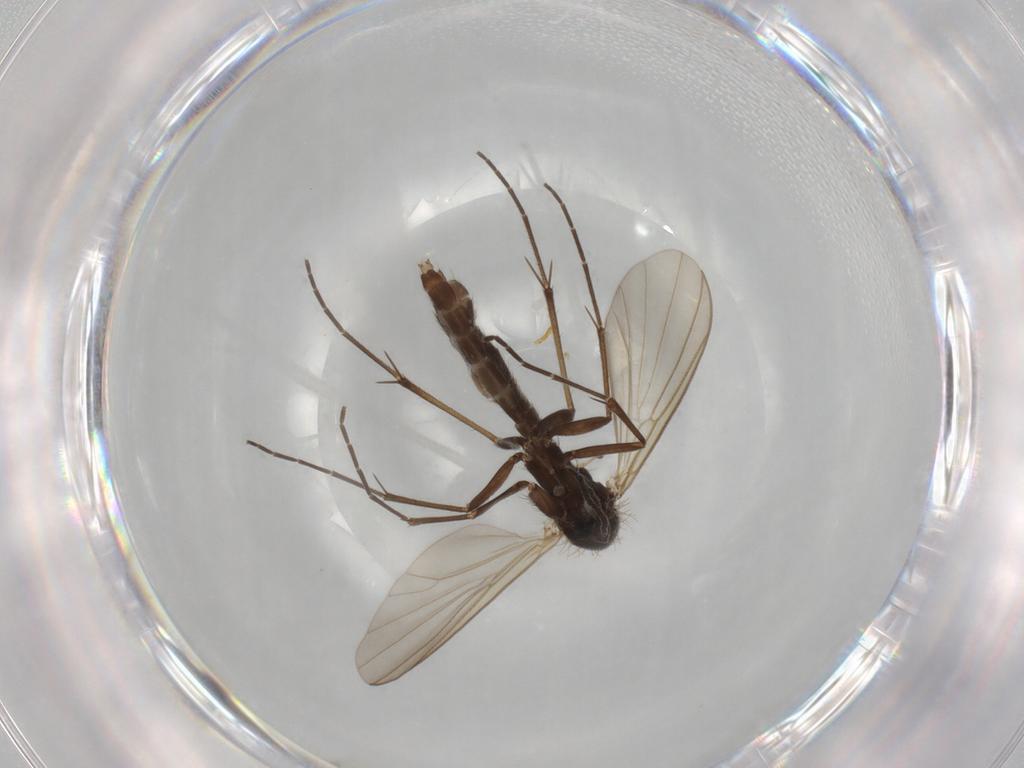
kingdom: Animalia
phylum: Arthropoda
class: Insecta
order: Diptera
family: Mycetophilidae
